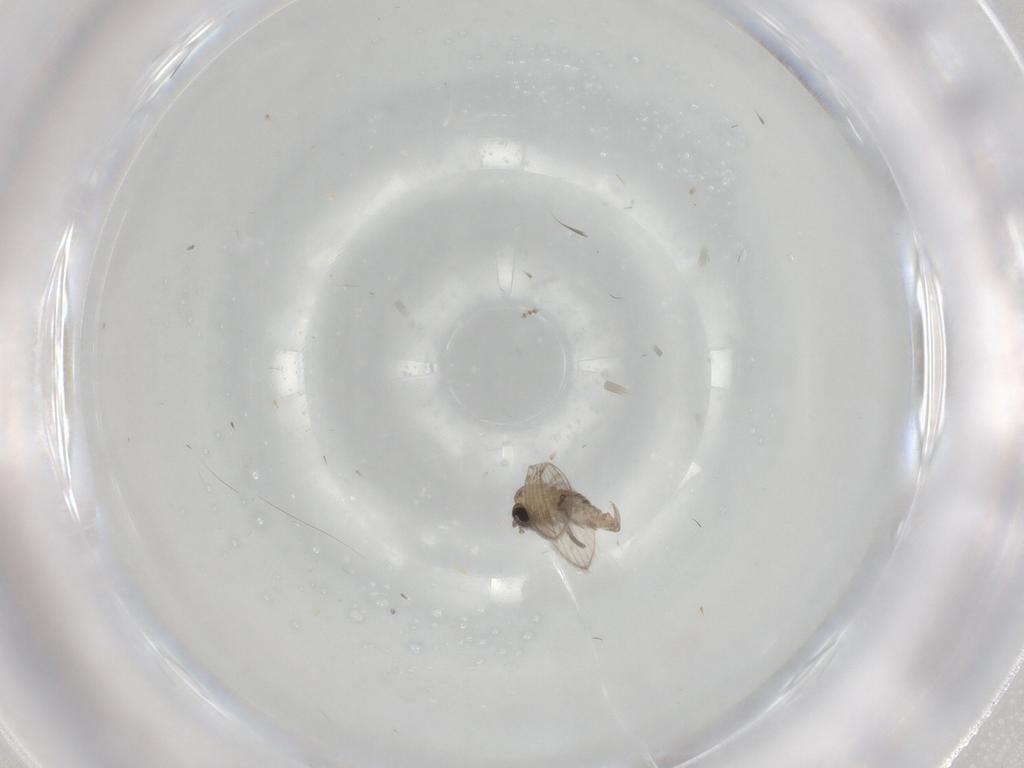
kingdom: Animalia
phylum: Arthropoda
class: Insecta
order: Diptera
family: Psychodidae
